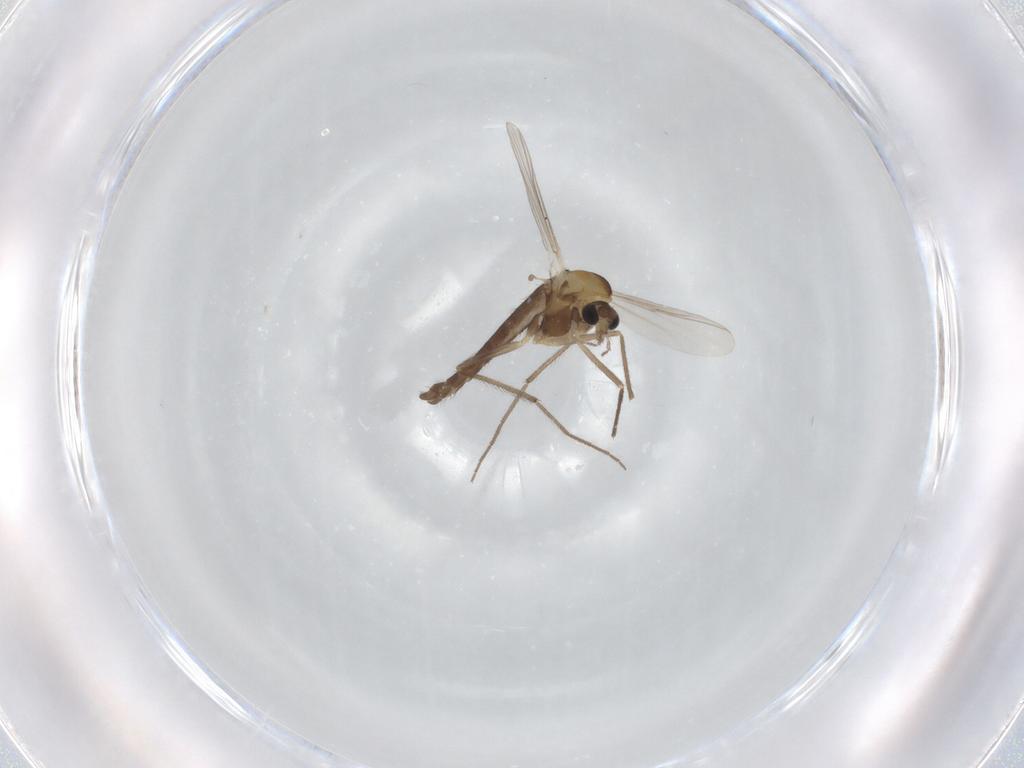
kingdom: Animalia
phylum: Arthropoda
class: Insecta
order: Diptera
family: Chironomidae
